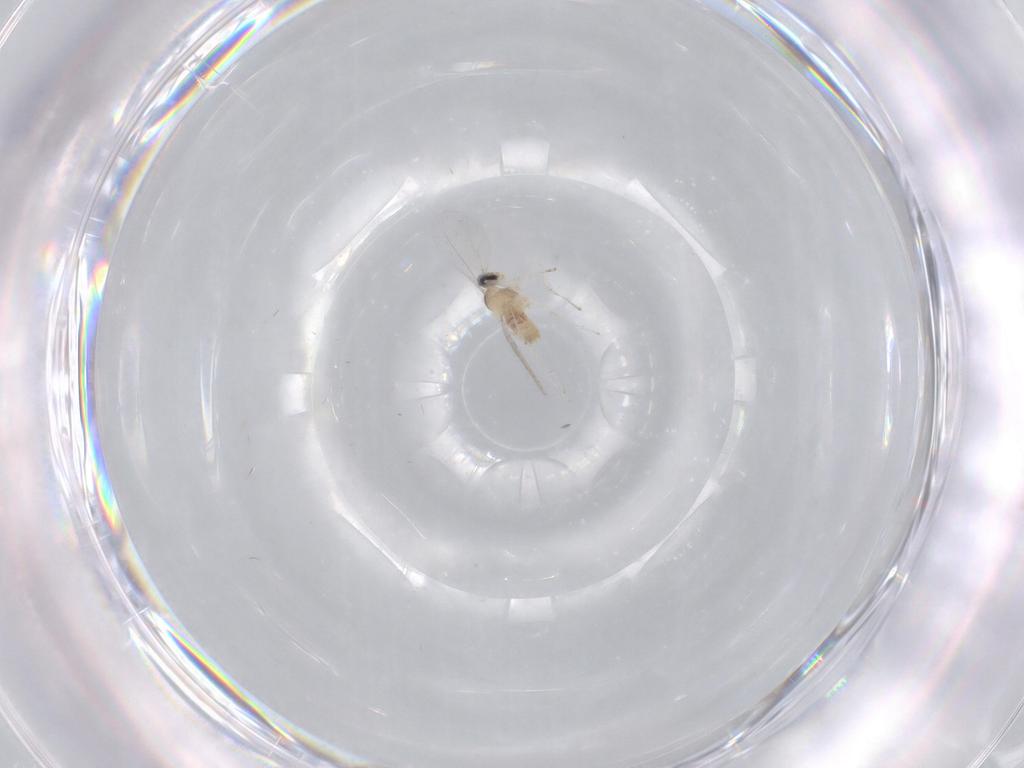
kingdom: Animalia
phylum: Arthropoda
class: Insecta
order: Diptera
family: Cecidomyiidae
